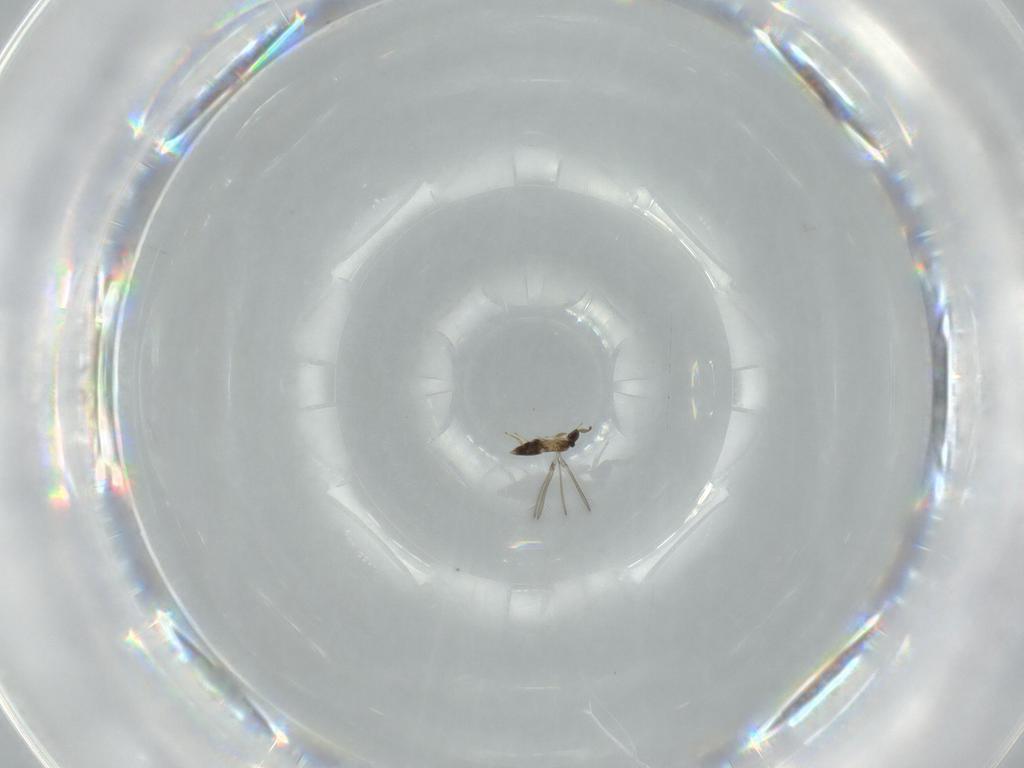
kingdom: Animalia
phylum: Arthropoda
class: Insecta
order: Hymenoptera
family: Mymaridae
